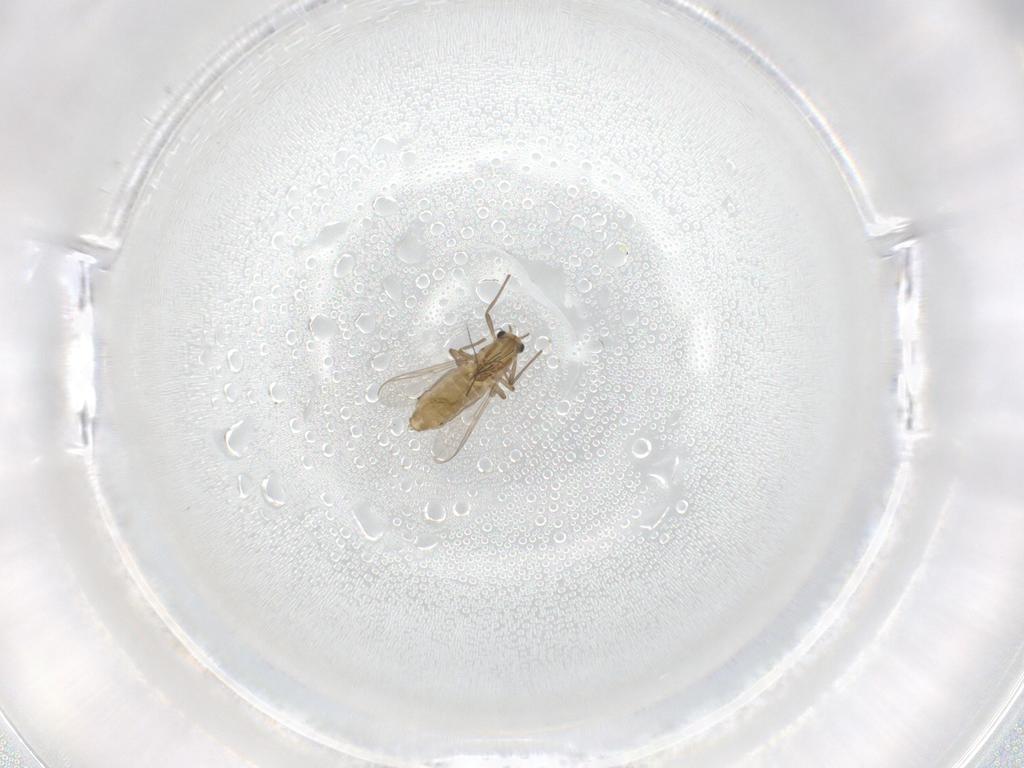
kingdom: Animalia
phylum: Arthropoda
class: Insecta
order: Diptera
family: Chironomidae
